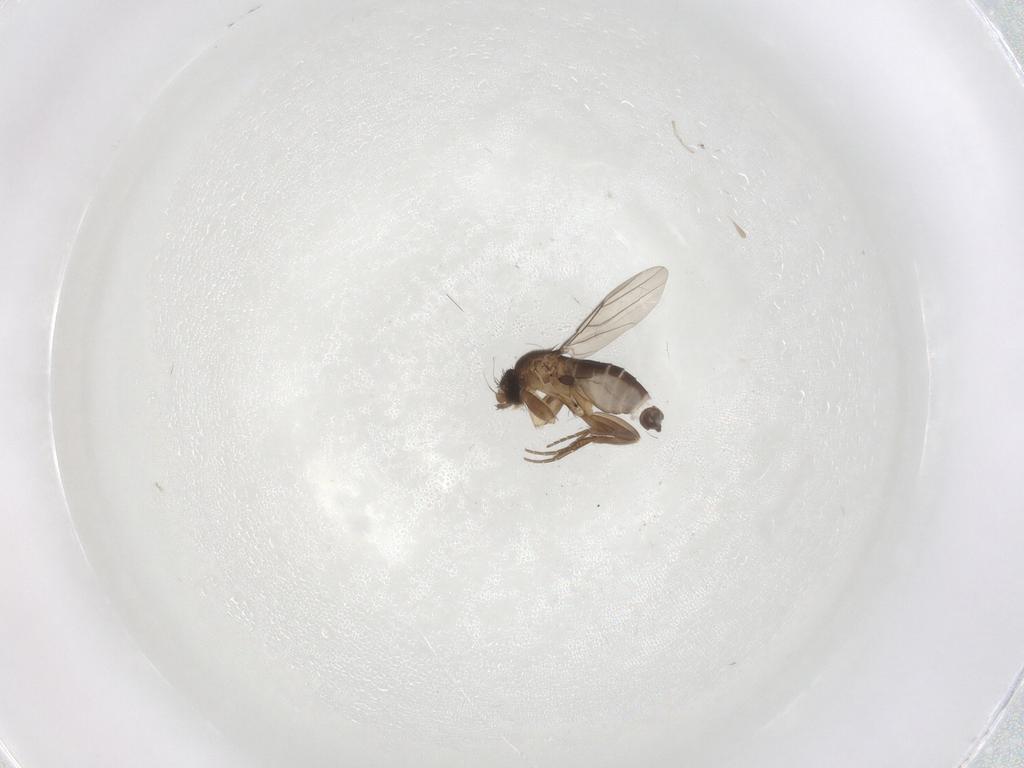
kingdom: Animalia
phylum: Arthropoda
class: Insecta
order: Diptera
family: Phoridae
